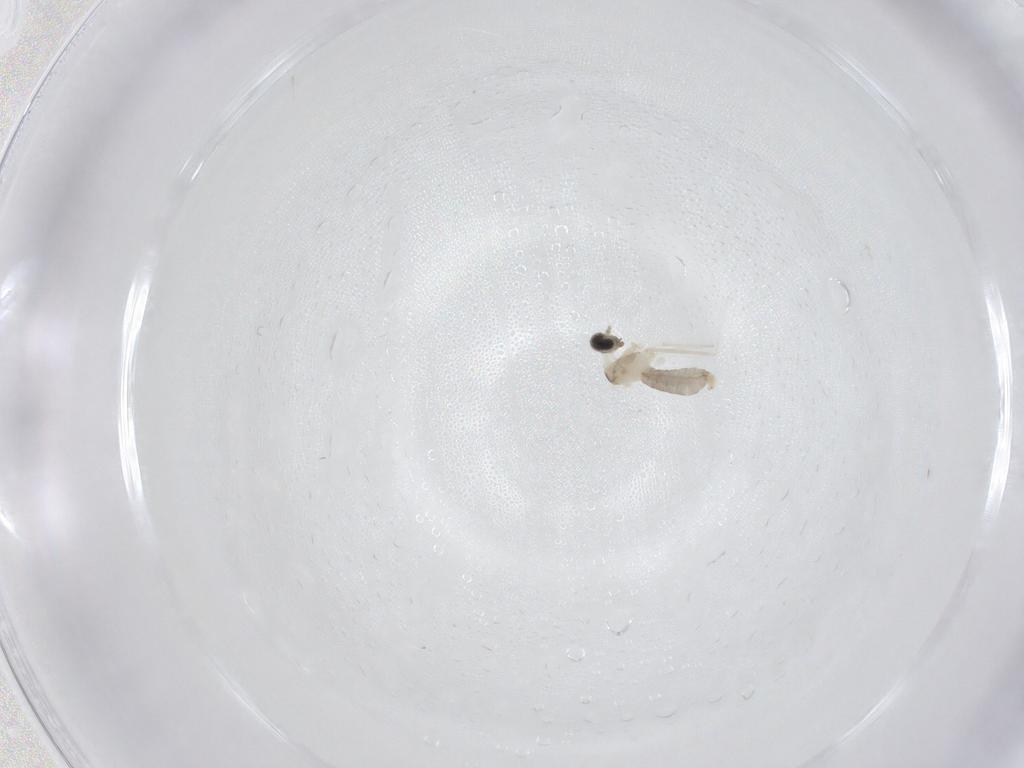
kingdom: Animalia
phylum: Arthropoda
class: Insecta
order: Diptera
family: Cecidomyiidae
